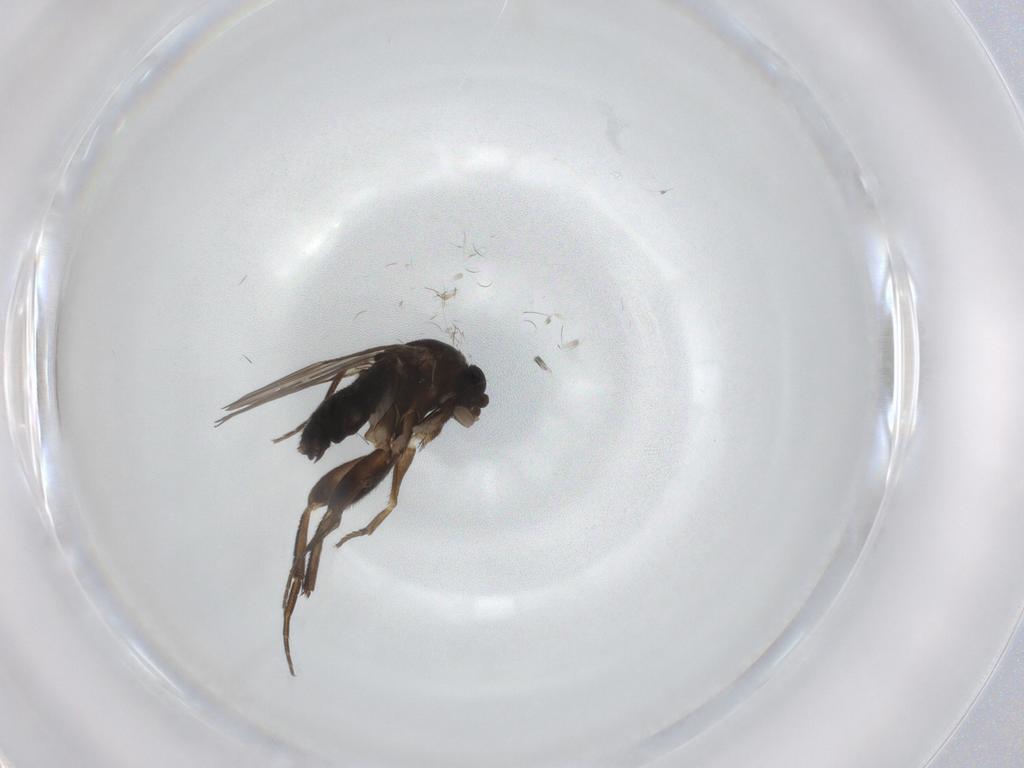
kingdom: Animalia
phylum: Arthropoda
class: Insecta
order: Diptera
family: Phoridae
